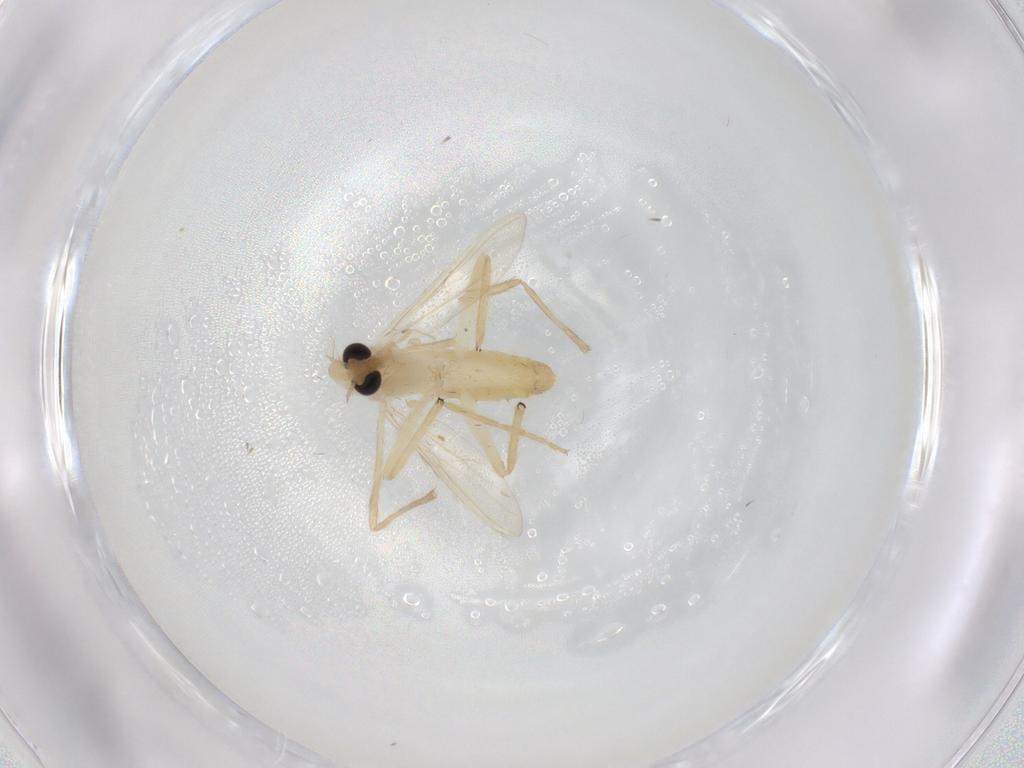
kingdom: Animalia
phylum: Arthropoda
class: Insecta
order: Diptera
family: Chironomidae
